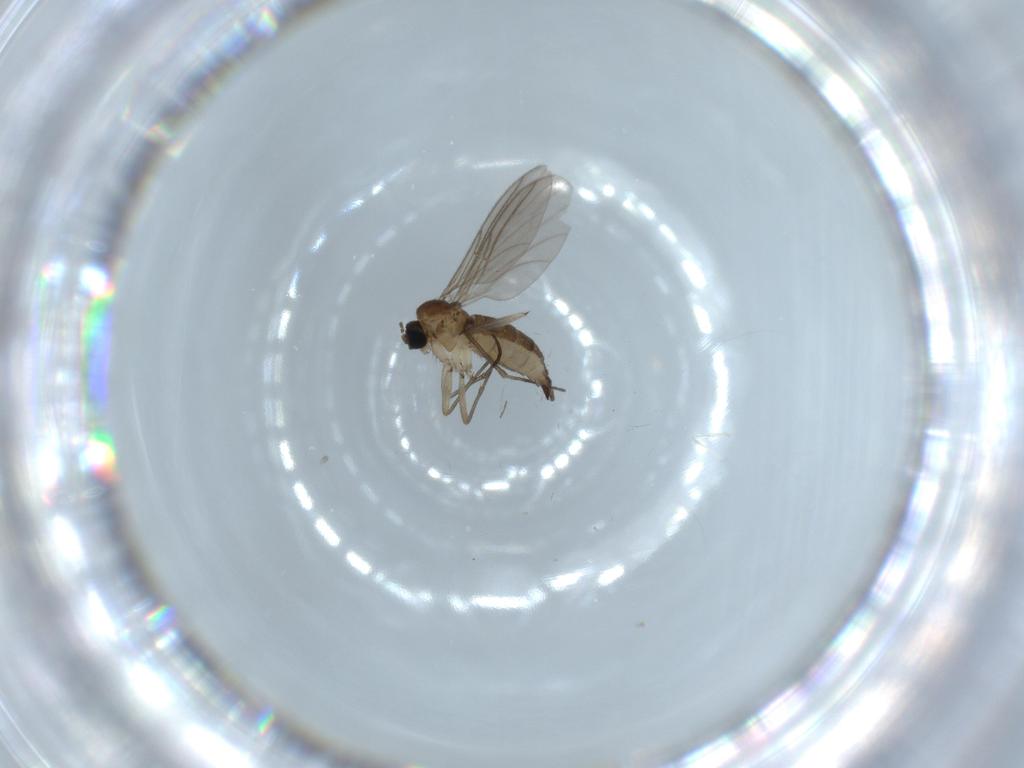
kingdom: Animalia
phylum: Arthropoda
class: Insecta
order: Diptera
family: Sciaridae
